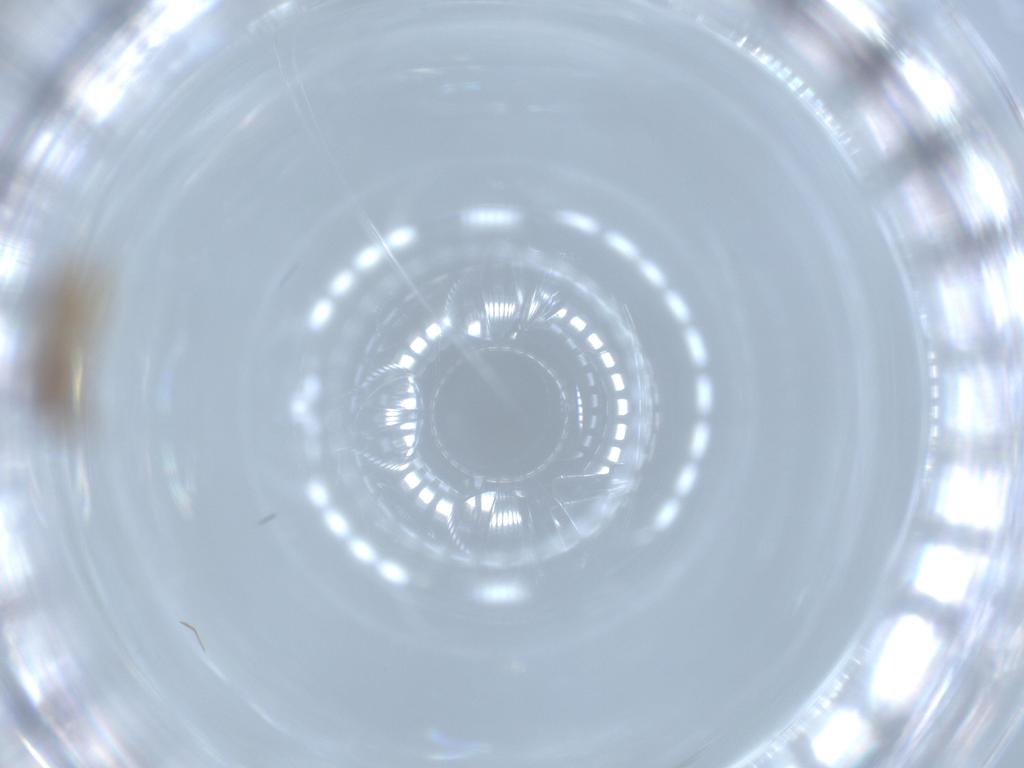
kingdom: Animalia
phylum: Arthropoda
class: Insecta
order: Hymenoptera
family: Scelionidae
